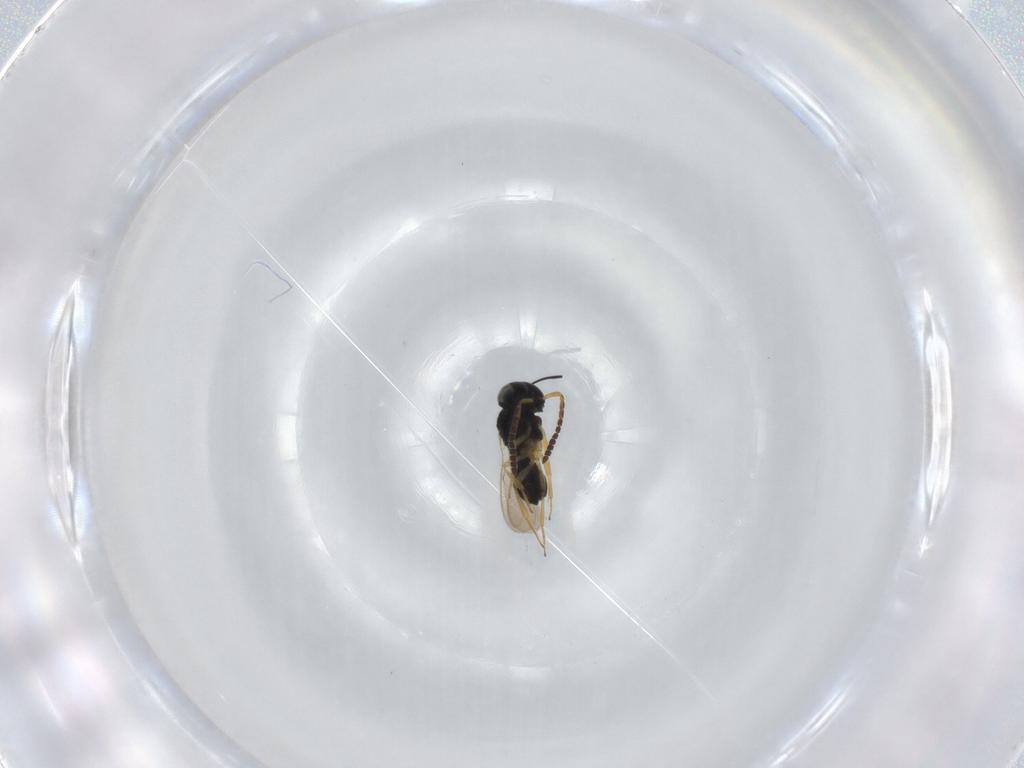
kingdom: Animalia
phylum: Arthropoda
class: Insecta
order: Hymenoptera
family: Scelionidae
